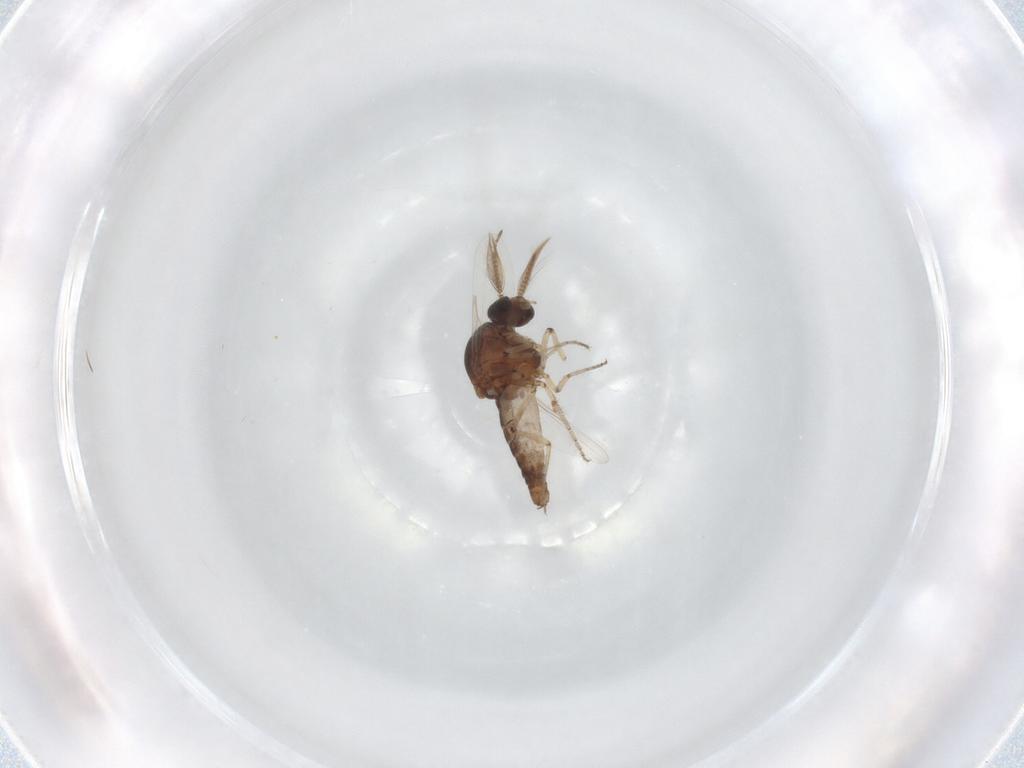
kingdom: Animalia
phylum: Arthropoda
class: Insecta
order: Diptera
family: Ceratopogonidae
